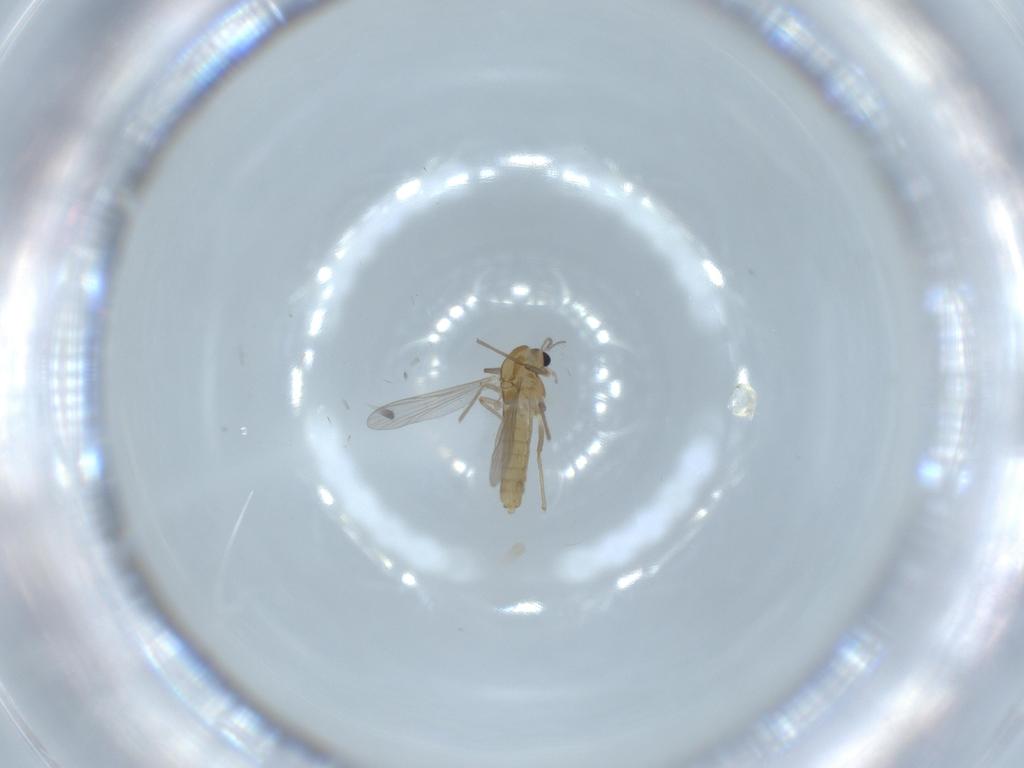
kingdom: Animalia
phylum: Arthropoda
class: Insecta
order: Diptera
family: Chironomidae
